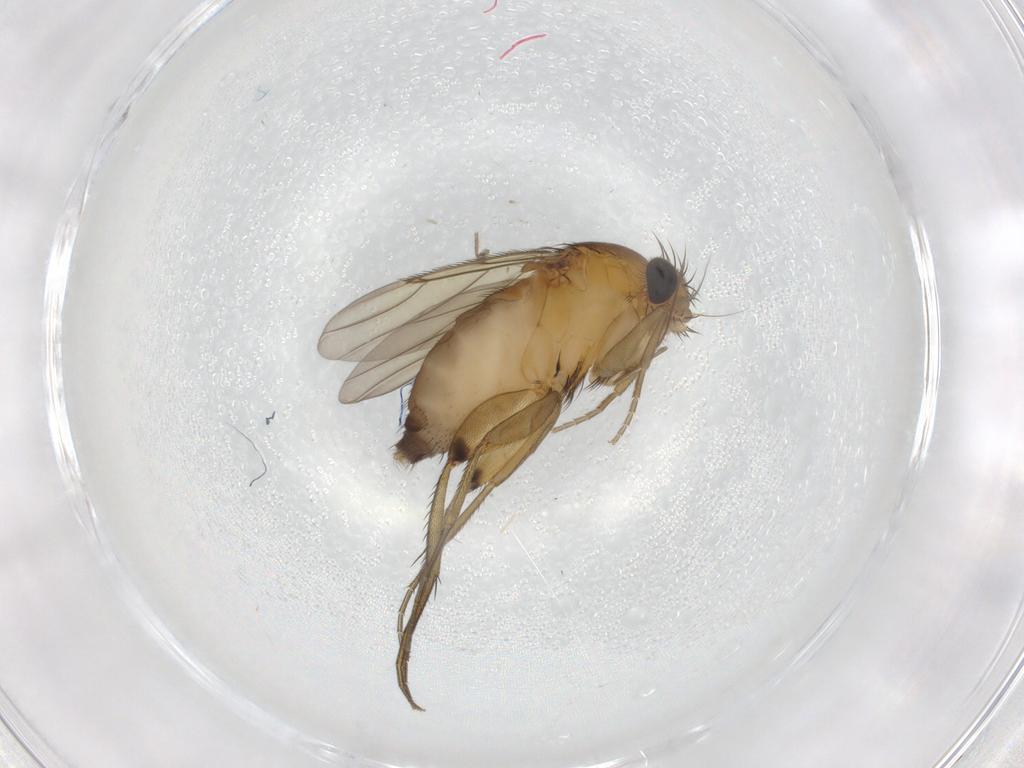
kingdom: Animalia
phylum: Arthropoda
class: Insecta
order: Diptera
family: Phoridae
